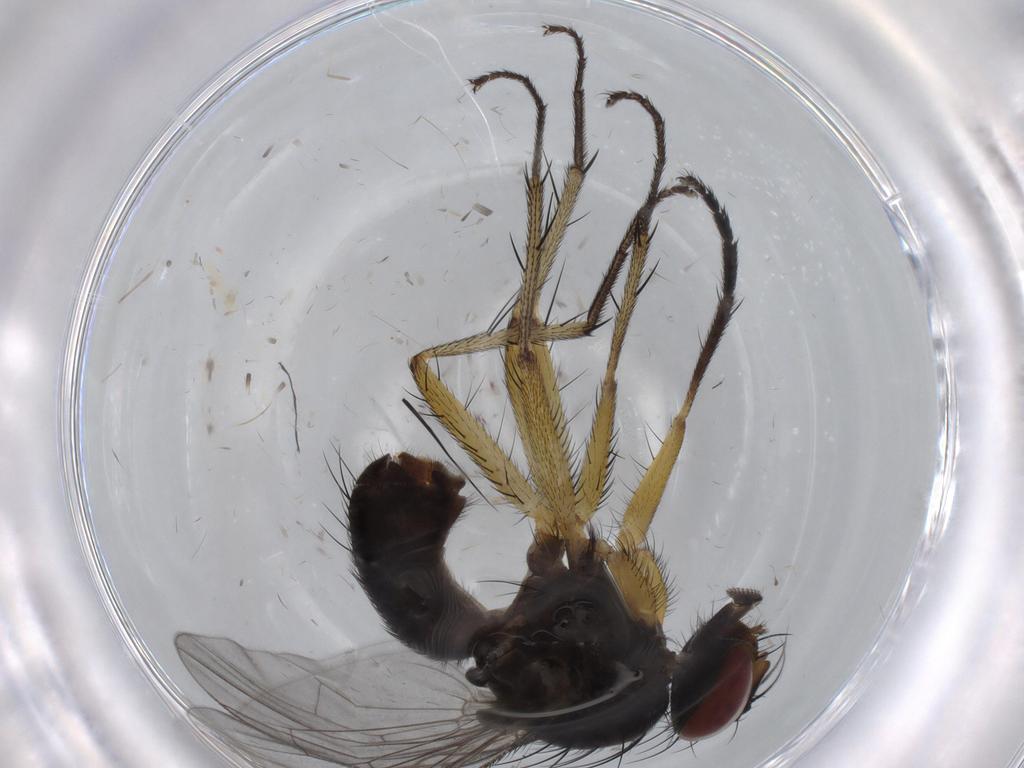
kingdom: Animalia
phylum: Arthropoda
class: Insecta
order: Diptera
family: Muscidae
